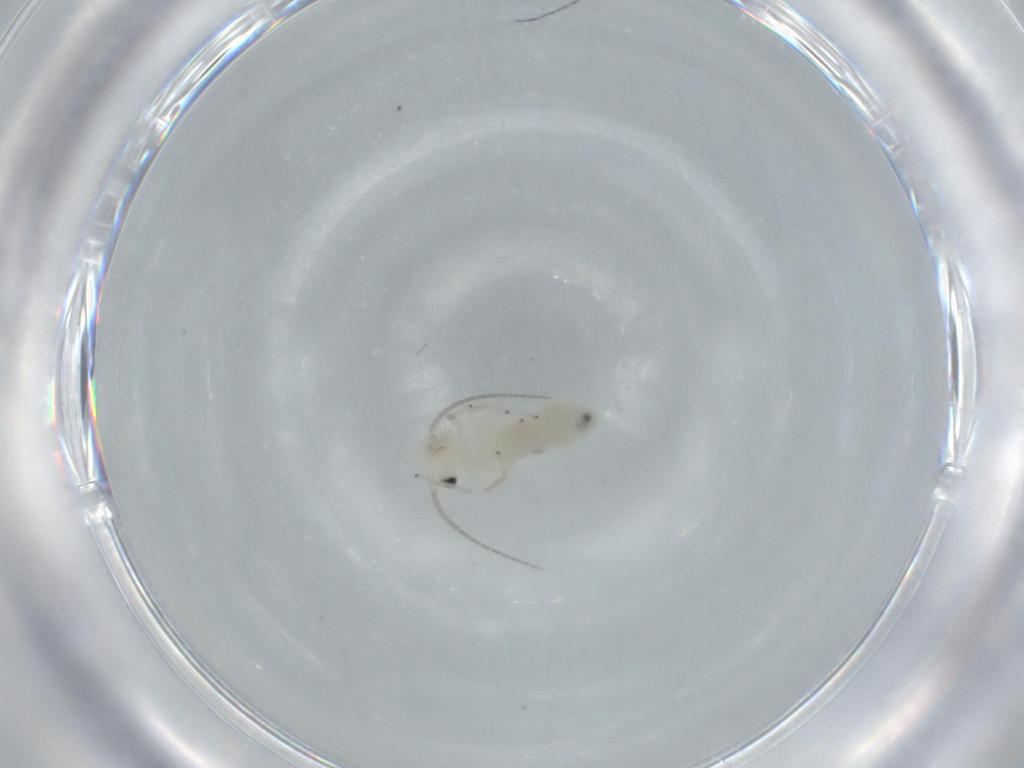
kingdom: Animalia
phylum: Arthropoda
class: Insecta
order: Psocodea
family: Caeciliusidae
